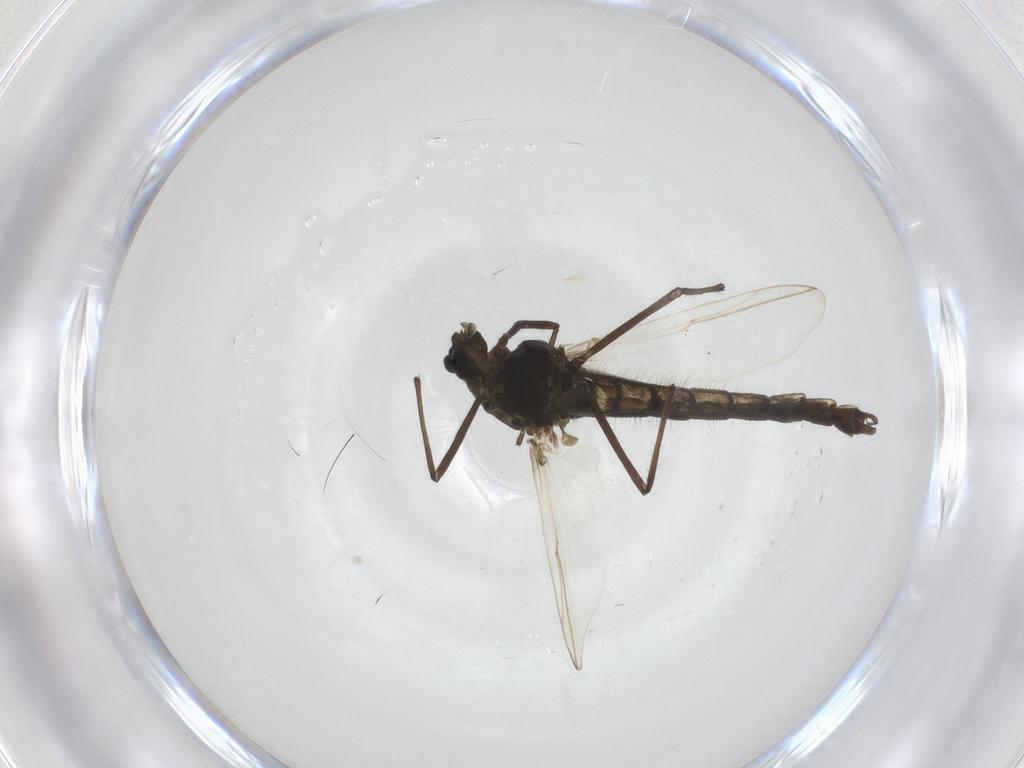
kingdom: Animalia
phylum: Arthropoda
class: Insecta
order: Diptera
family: Chironomidae
